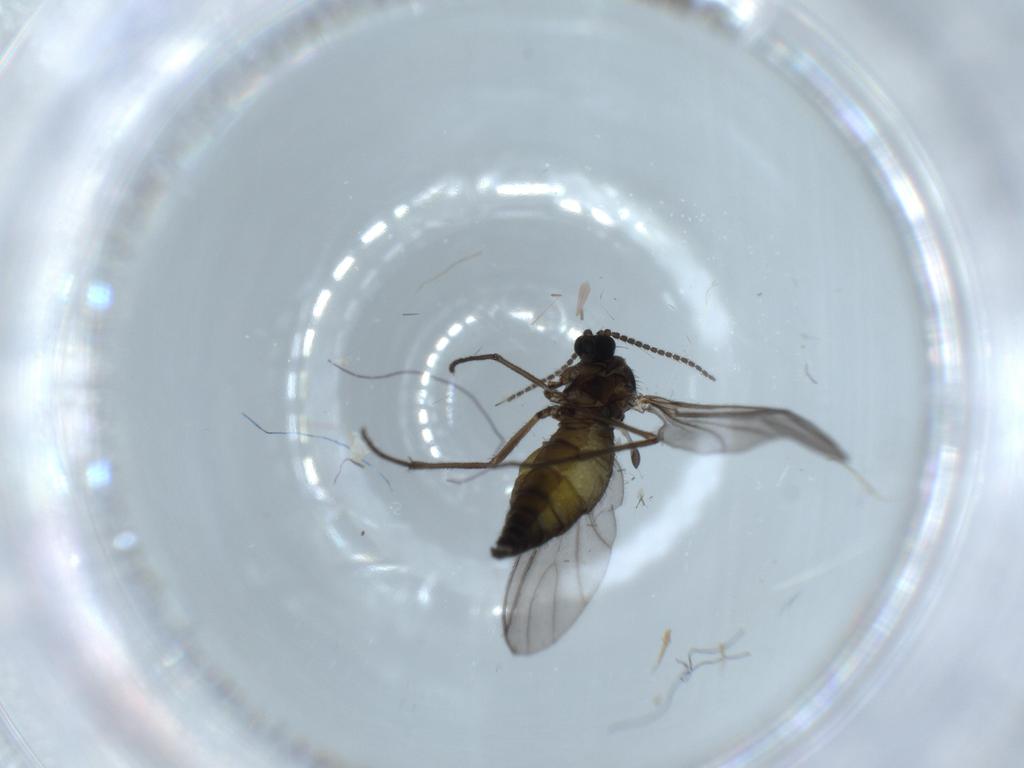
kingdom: Animalia
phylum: Arthropoda
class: Insecta
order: Diptera
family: Sciaridae
